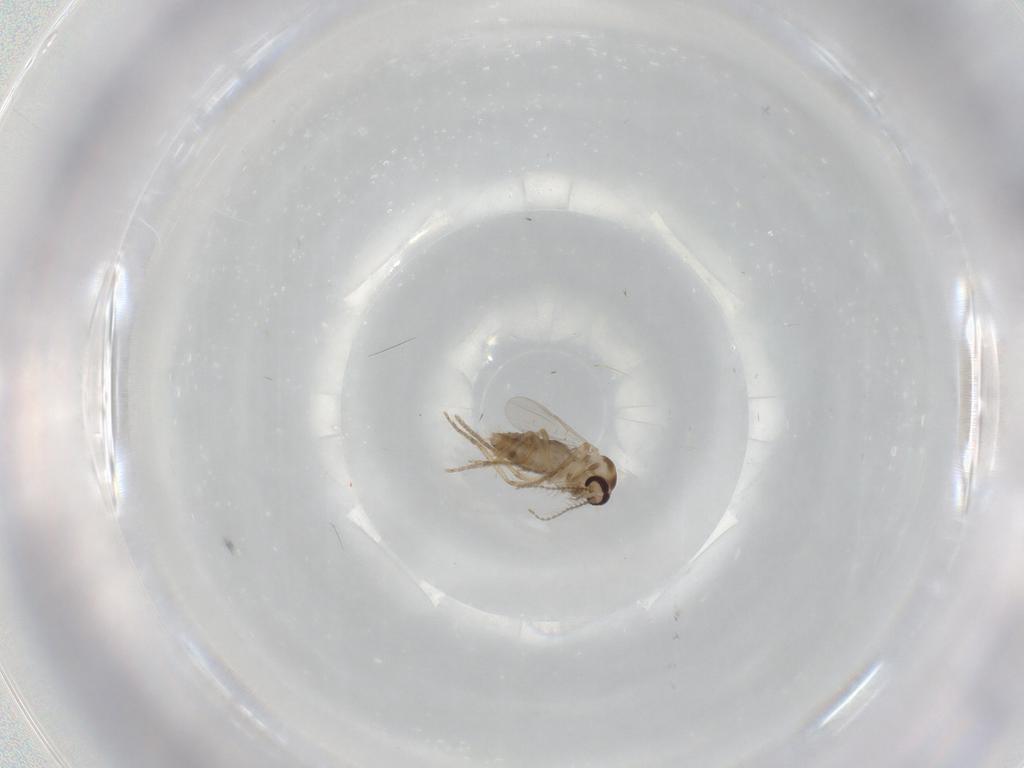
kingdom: Animalia
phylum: Arthropoda
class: Insecta
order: Diptera
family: Ceratopogonidae
